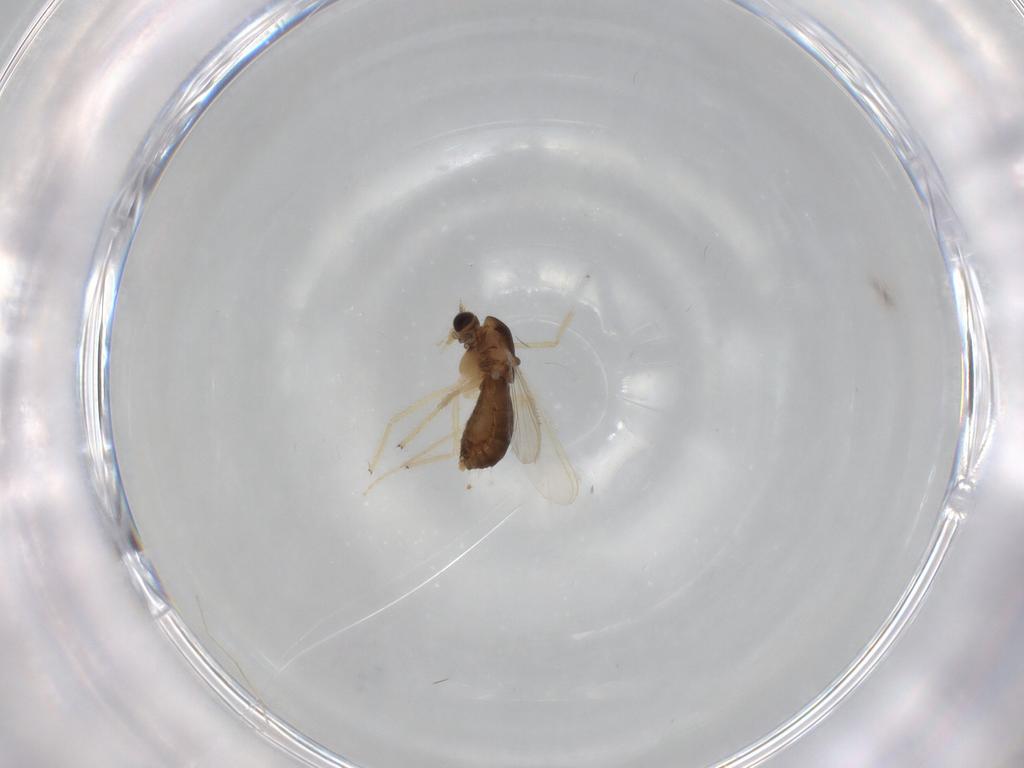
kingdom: Animalia
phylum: Arthropoda
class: Insecta
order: Diptera
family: Chironomidae
